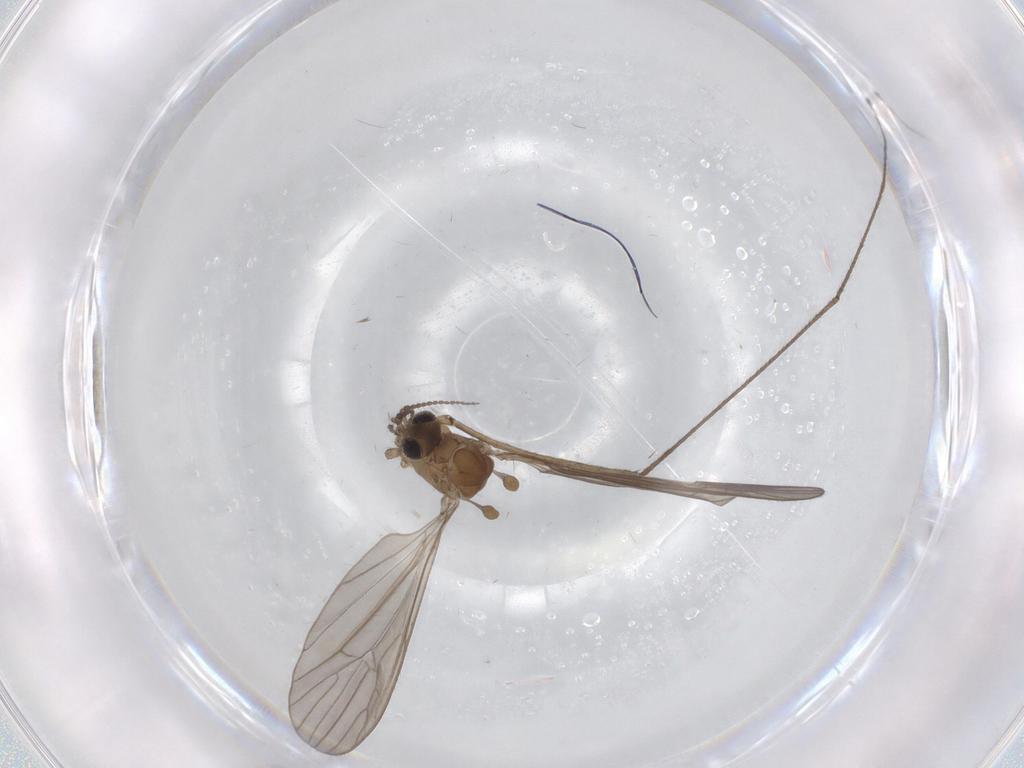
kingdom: Animalia
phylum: Arthropoda
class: Insecta
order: Diptera
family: Limoniidae
